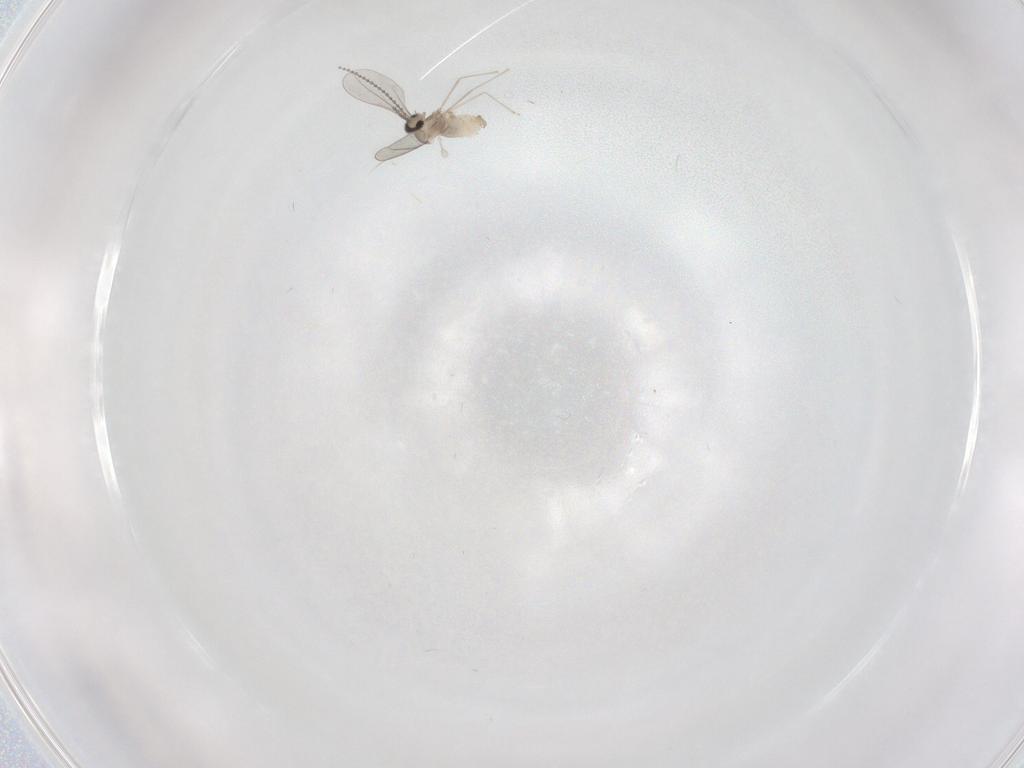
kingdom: Animalia
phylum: Arthropoda
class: Insecta
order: Diptera
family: Cecidomyiidae
